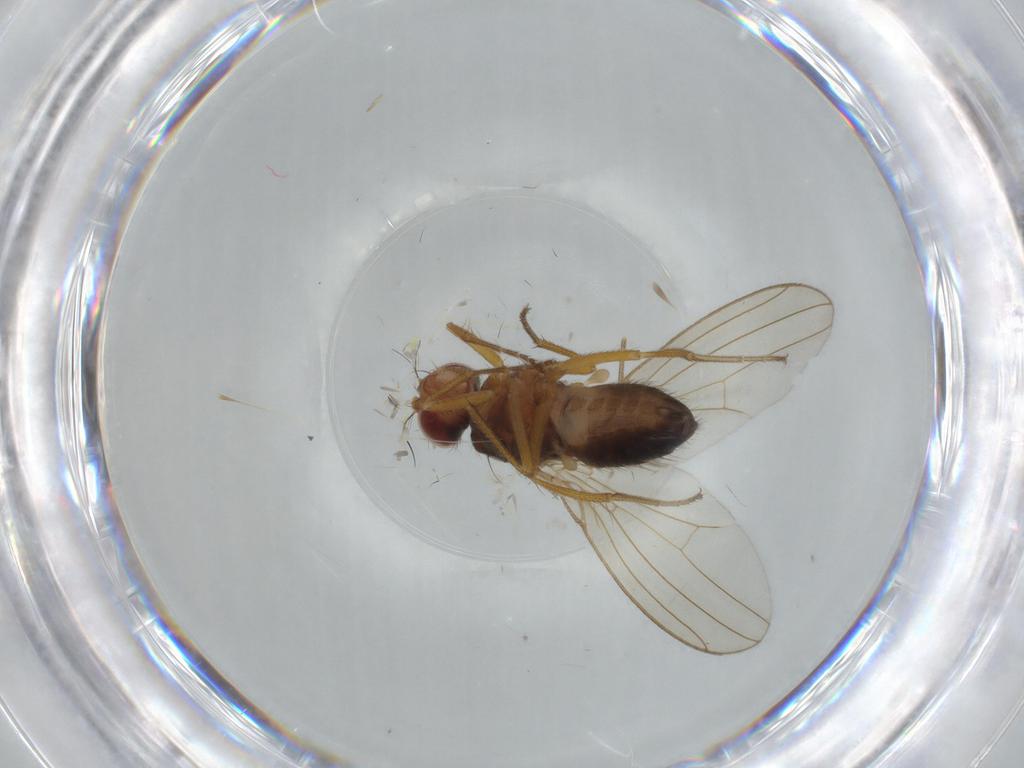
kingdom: Animalia
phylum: Arthropoda
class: Insecta
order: Diptera
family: Drosophilidae
